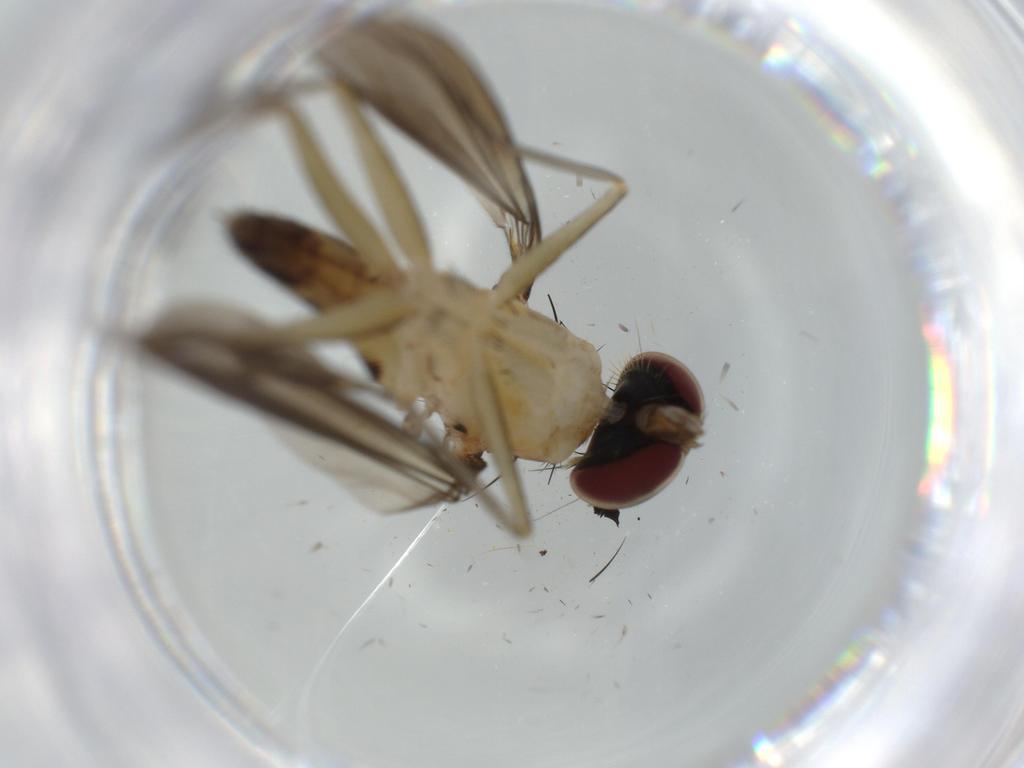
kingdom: Animalia
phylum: Arthropoda
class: Insecta
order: Diptera
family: Dolichopodidae
